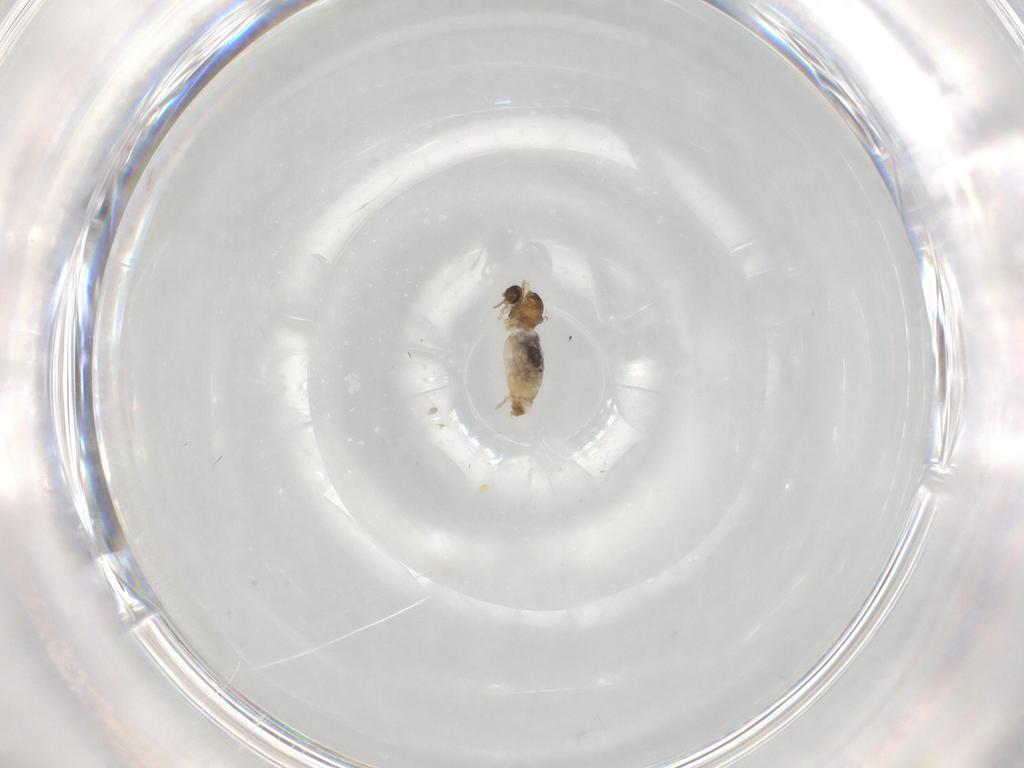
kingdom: Animalia
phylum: Arthropoda
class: Insecta
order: Diptera
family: Cecidomyiidae
